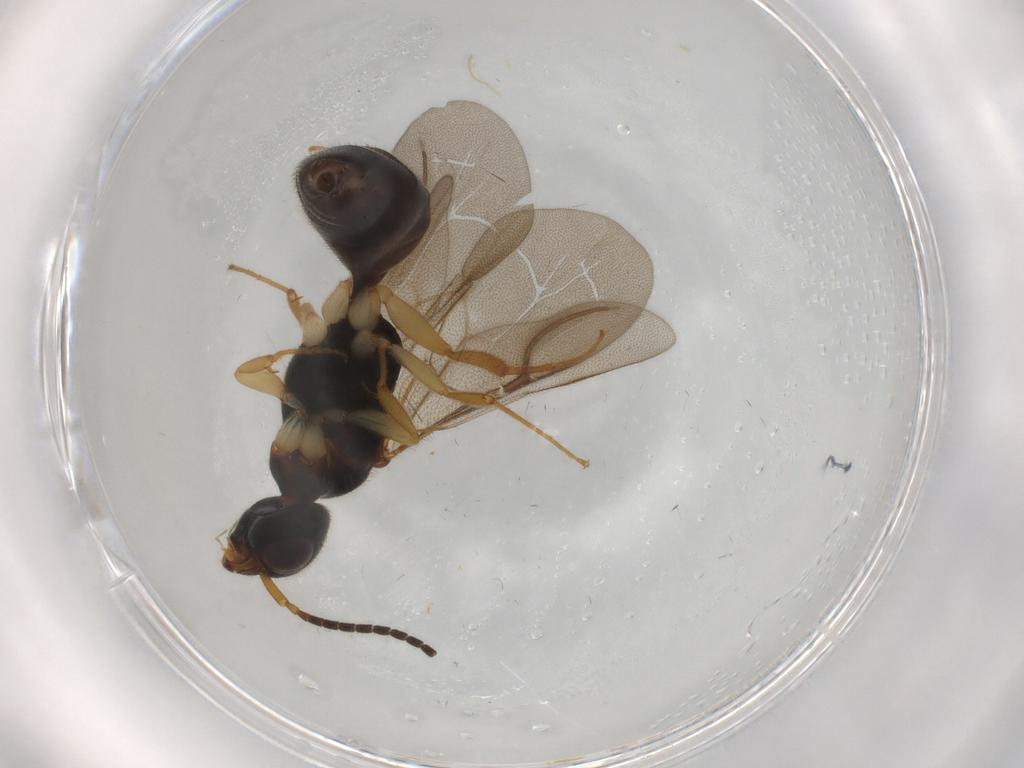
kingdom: Animalia
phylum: Arthropoda
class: Insecta
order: Hymenoptera
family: Bethylidae
